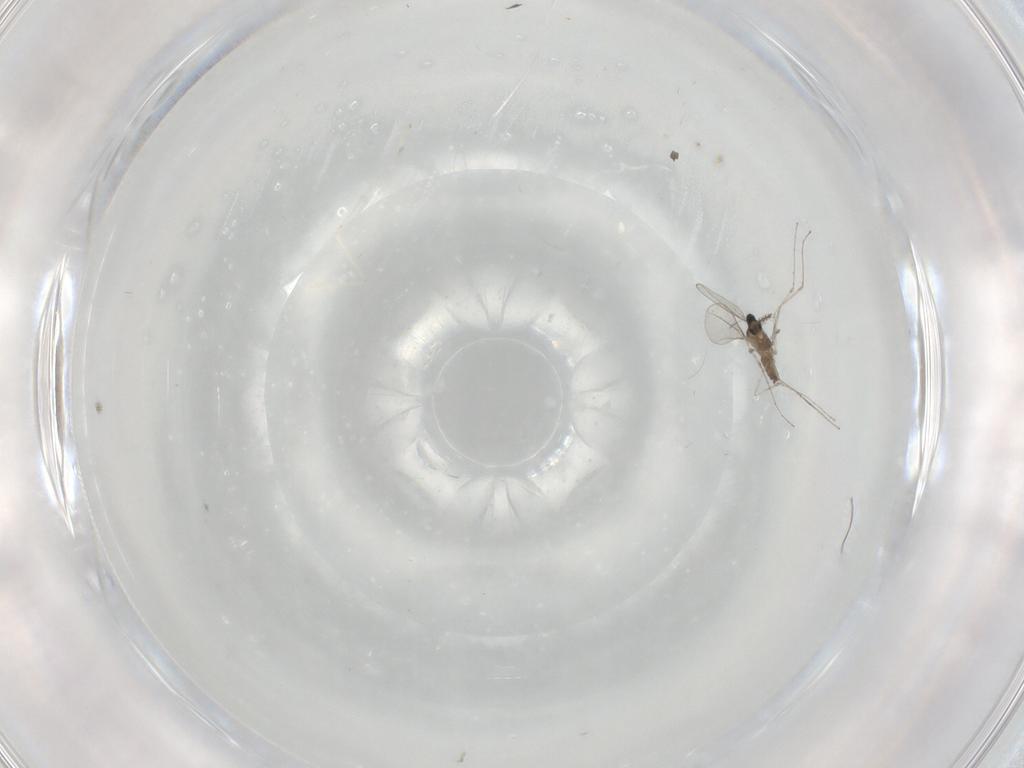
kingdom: Animalia
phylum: Arthropoda
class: Insecta
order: Diptera
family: Cecidomyiidae
